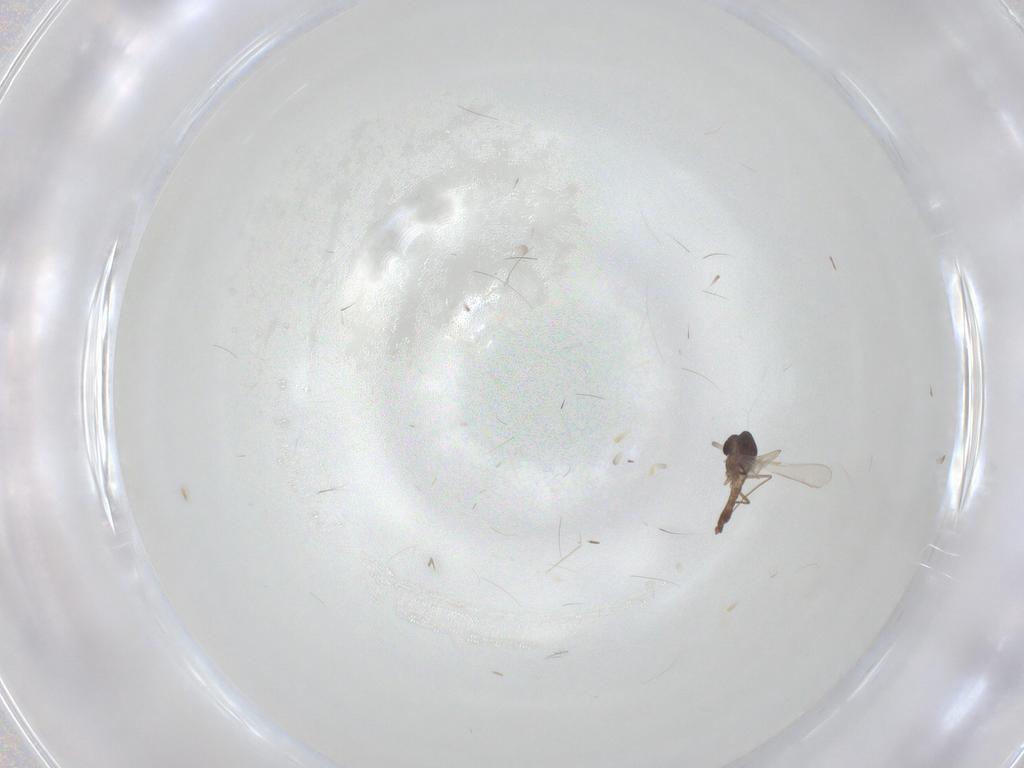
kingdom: Animalia
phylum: Arthropoda
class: Insecta
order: Diptera
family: Chironomidae
